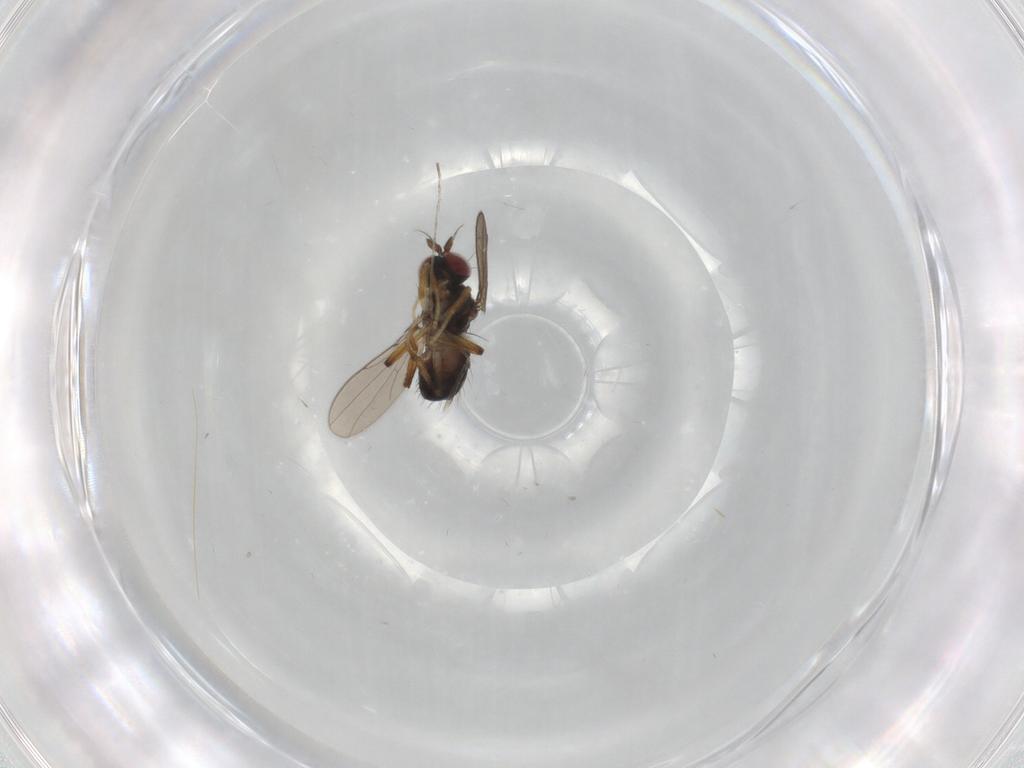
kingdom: Animalia
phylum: Arthropoda
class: Insecta
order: Diptera
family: Ephydridae
